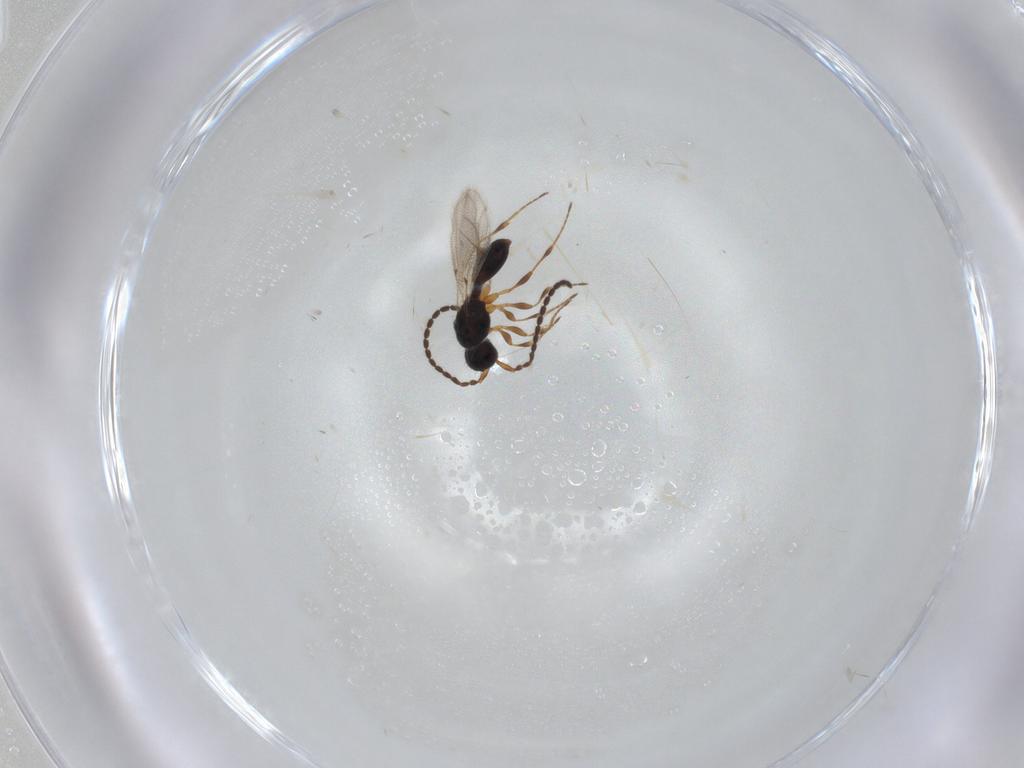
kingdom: Animalia
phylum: Arthropoda
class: Insecta
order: Hymenoptera
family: Diapriidae
